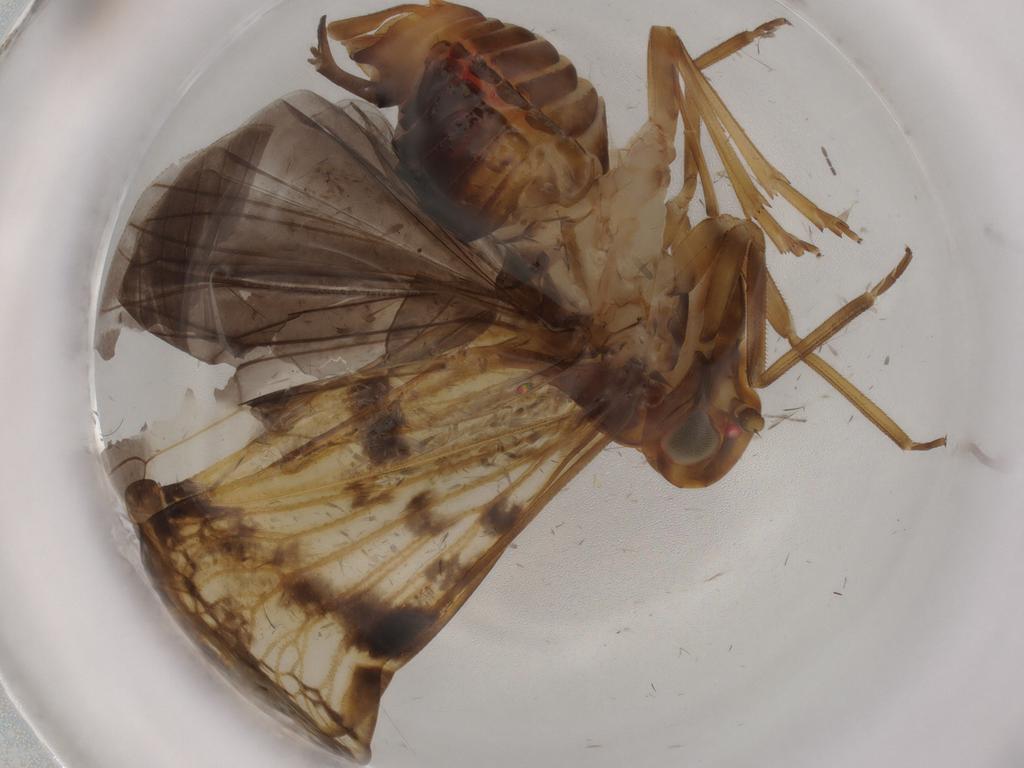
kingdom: Animalia
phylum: Arthropoda
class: Insecta
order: Hemiptera
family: Cixiidae
